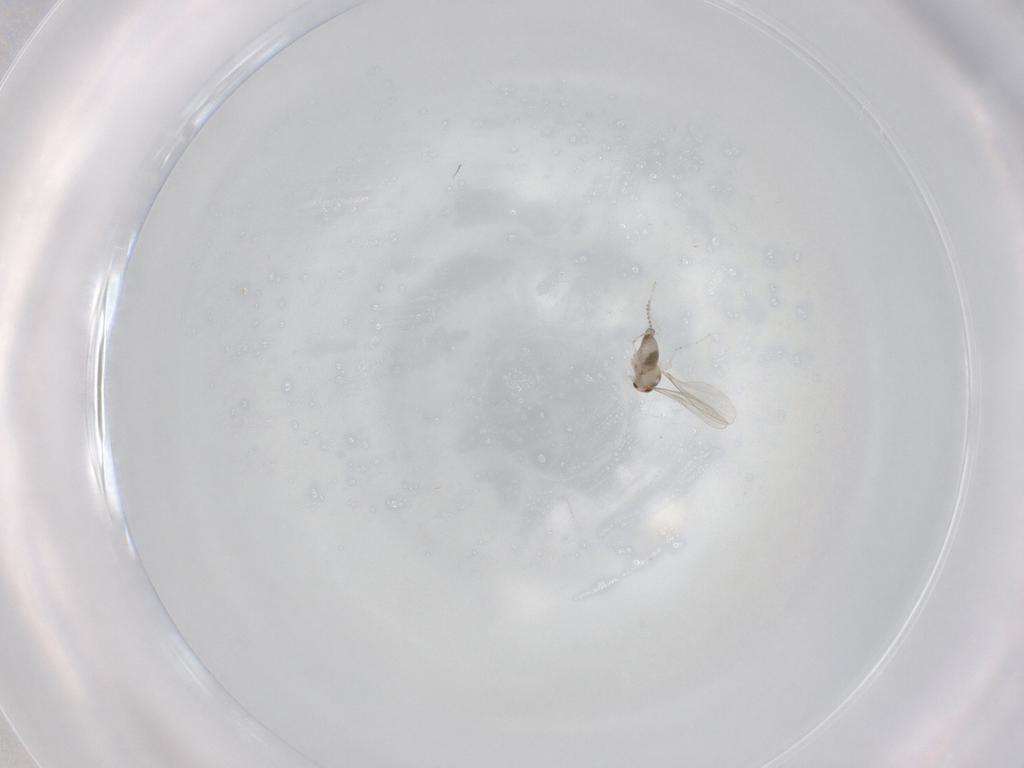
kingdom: Animalia
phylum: Arthropoda
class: Insecta
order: Diptera
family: Cecidomyiidae
